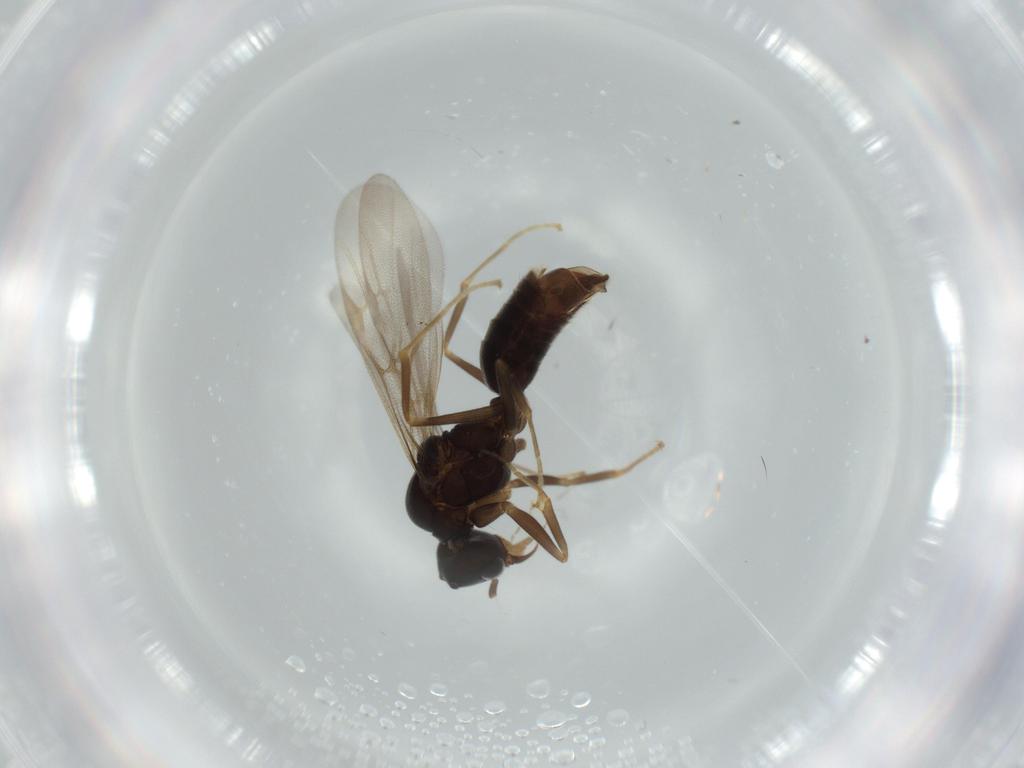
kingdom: Animalia
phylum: Arthropoda
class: Insecta
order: Hymenoptera
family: Formicidae
